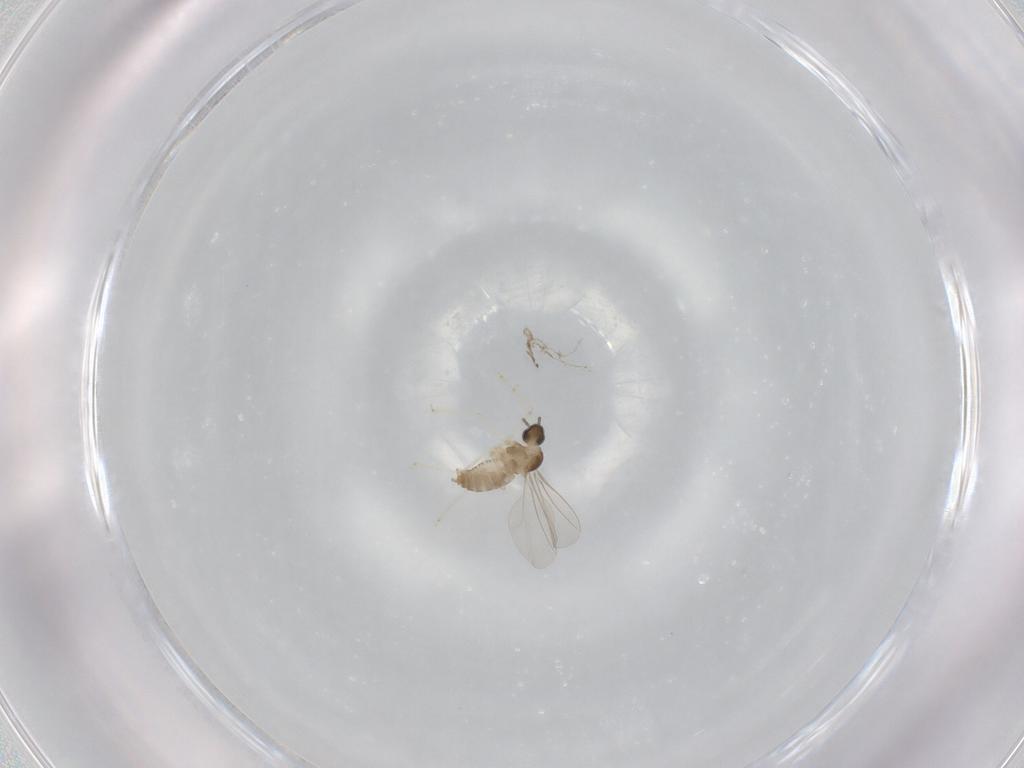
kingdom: Animalia
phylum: Arthropoda
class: Insecta
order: Diptera
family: Cecidomyiidae
